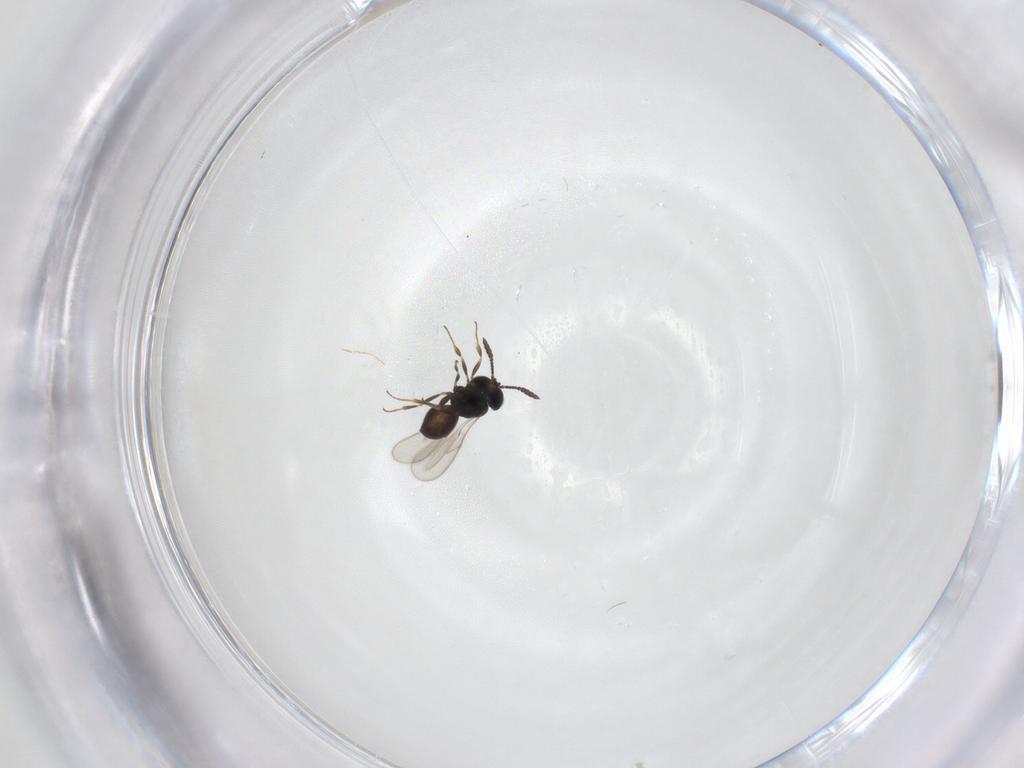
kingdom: Animalia
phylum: Arthropoda
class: Insecta
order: Hymenoptera
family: Scelionidae
